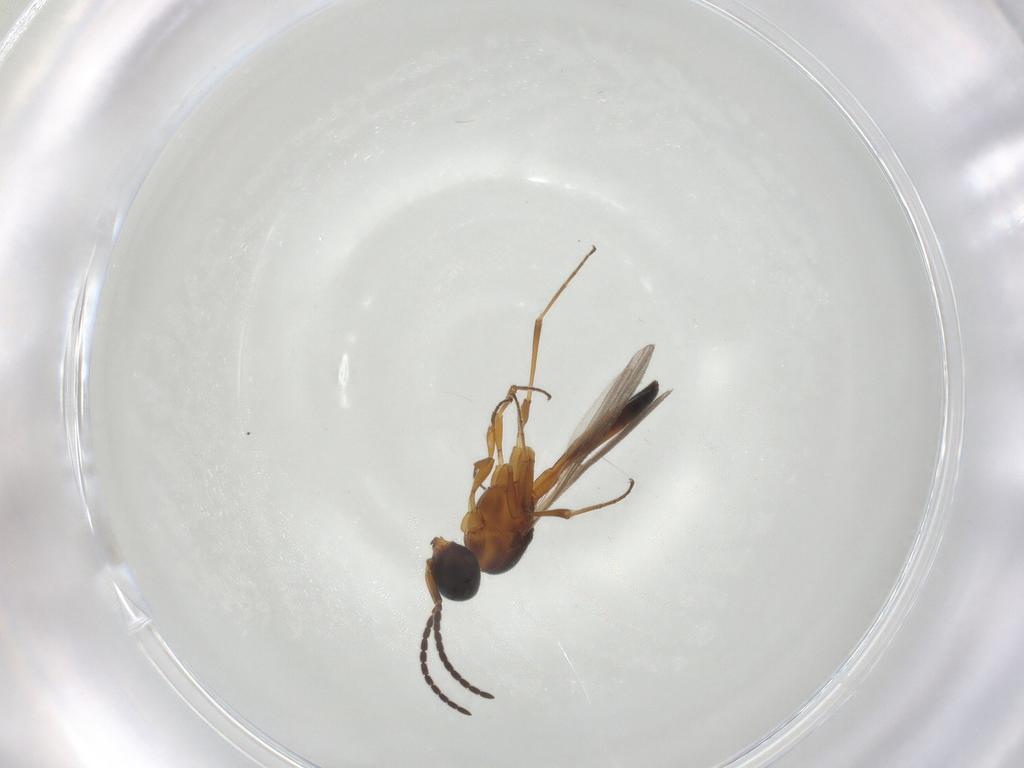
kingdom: Animalia
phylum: Arthropoda
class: Insecta
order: Hymenoptera
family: Scelionidae
